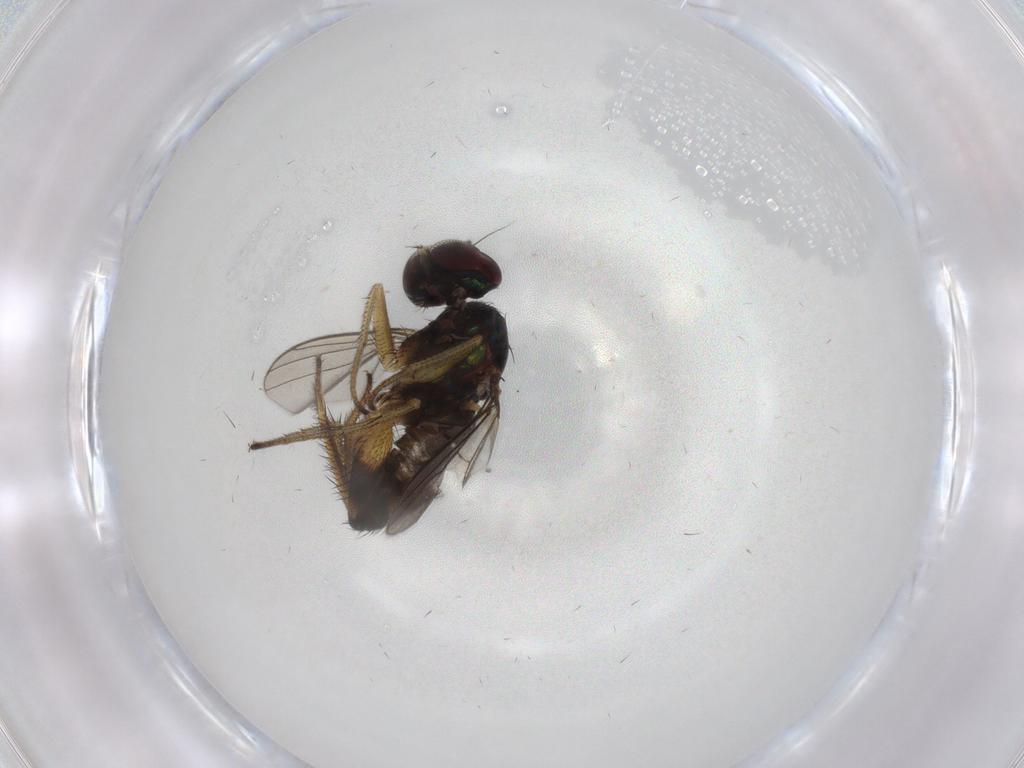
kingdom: Animalia
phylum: Arthropoda
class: Insecta
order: Diptera
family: Dolichopodidae
